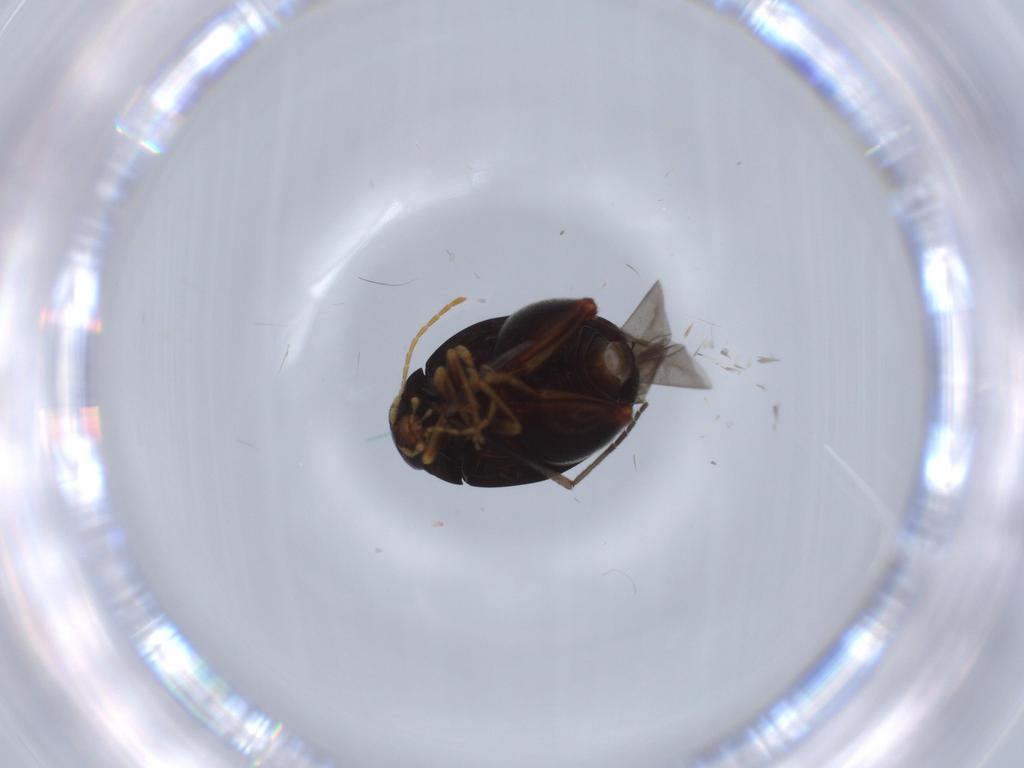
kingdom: Animalia
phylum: Arthropoda
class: Insecta
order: Coleoptera
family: Chrysomelidae
